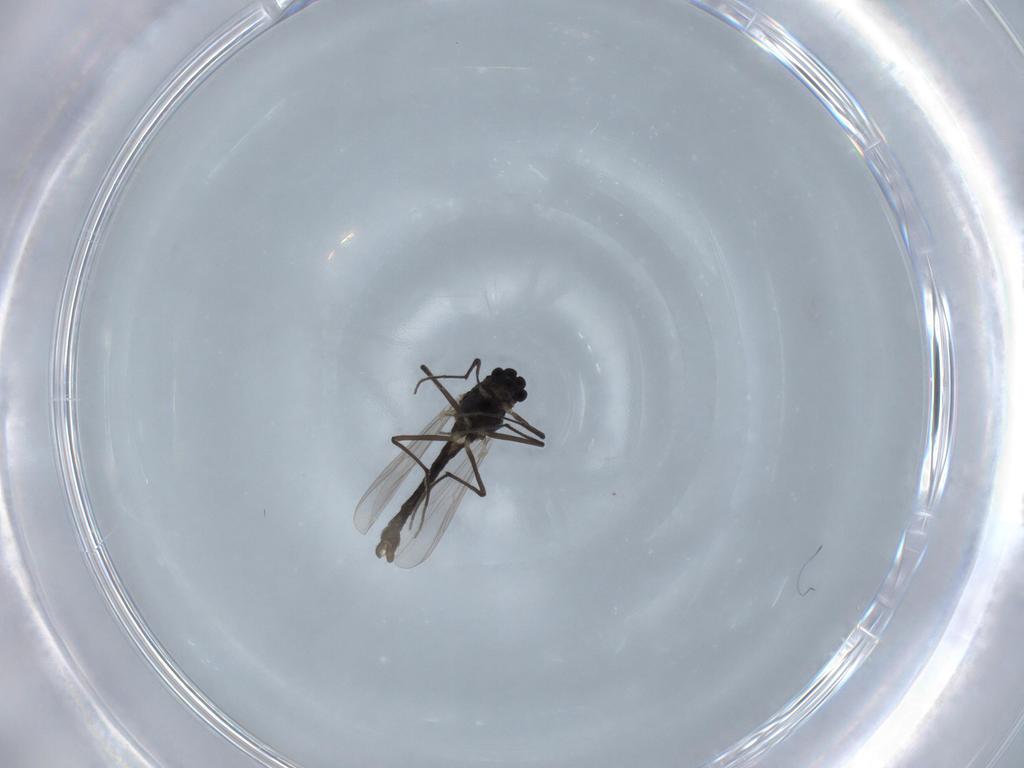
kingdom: Animalia
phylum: Arthropoda
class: Insecta
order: Diptera
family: Chironomidae
